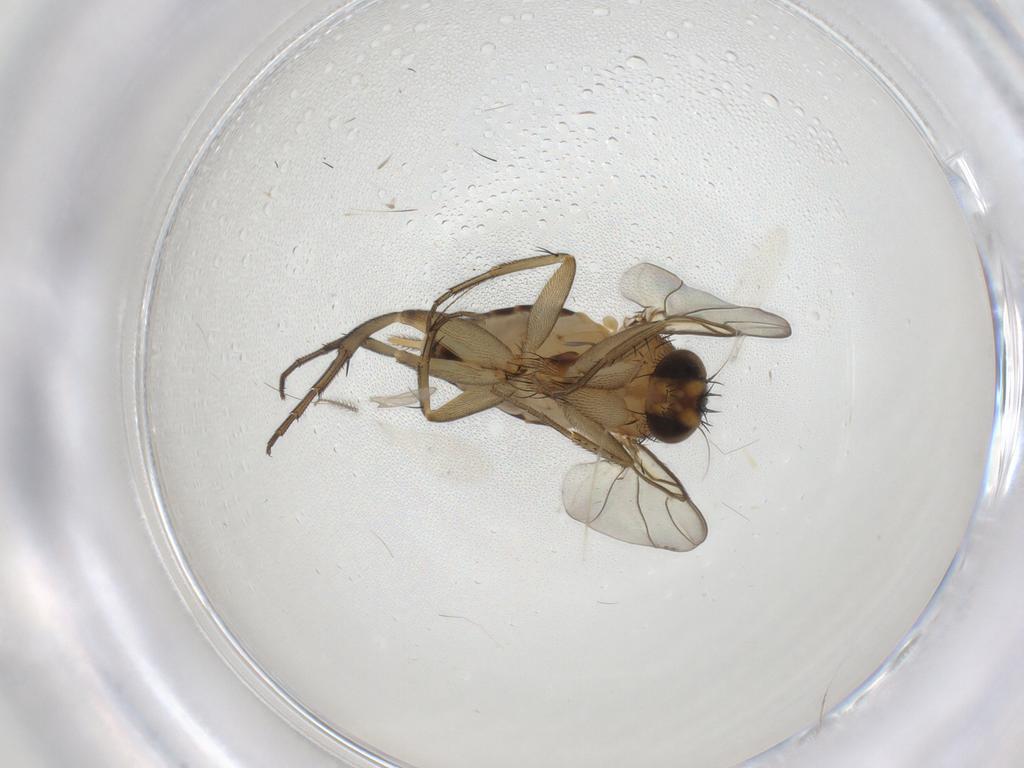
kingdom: Animalia
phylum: Arthropoda
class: Insecta
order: Diptera
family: Phoridae
